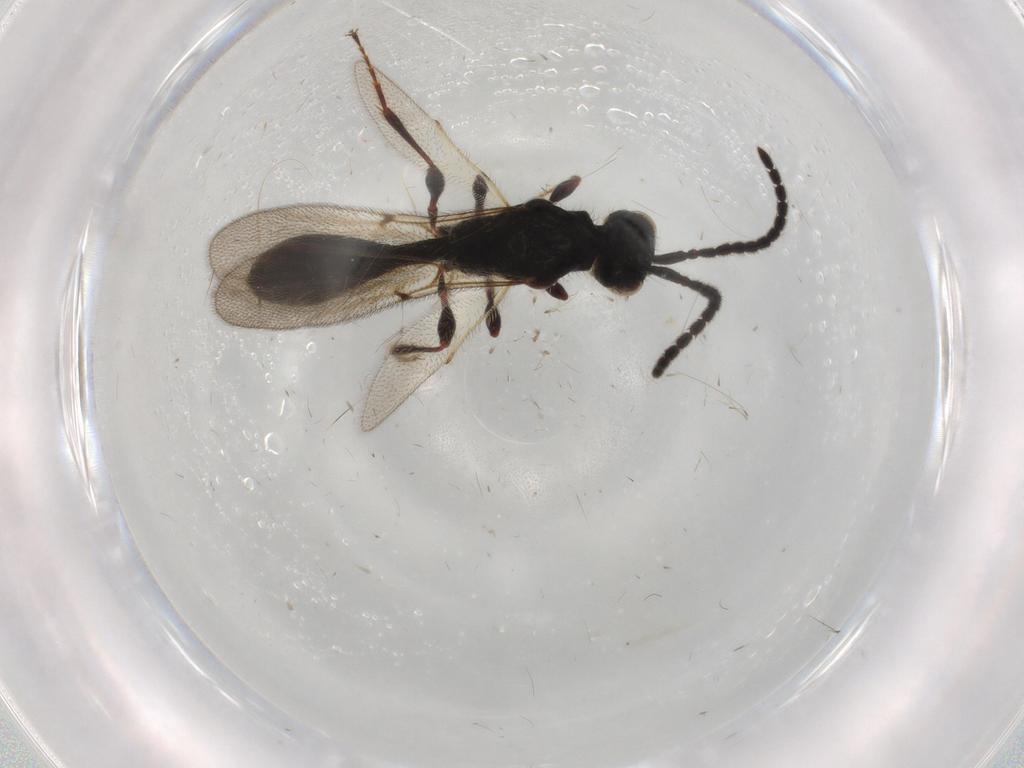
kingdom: Animalia
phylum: Arthropoda
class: Insecta
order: Hymenoptera
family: Diapriidae
